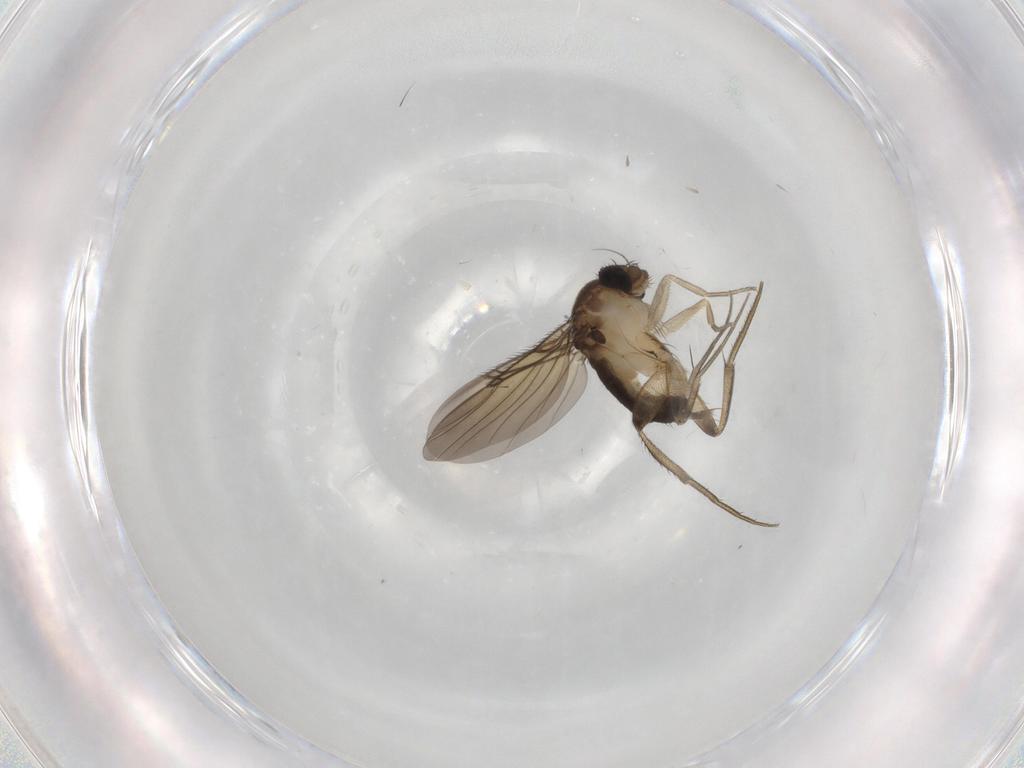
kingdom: Animalia
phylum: Arthropoda
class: Insecta
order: Diptera
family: Phoridae
